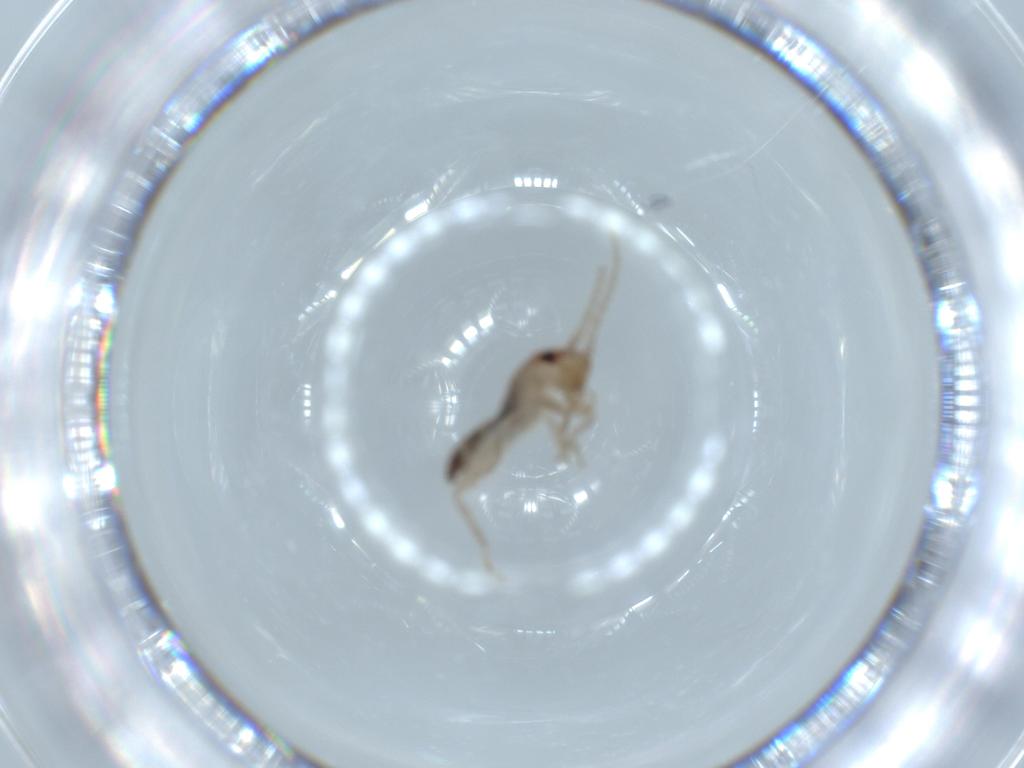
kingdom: Animalia
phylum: Arthropoda
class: Insecta
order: Orthoptera
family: Mogoplistidae
